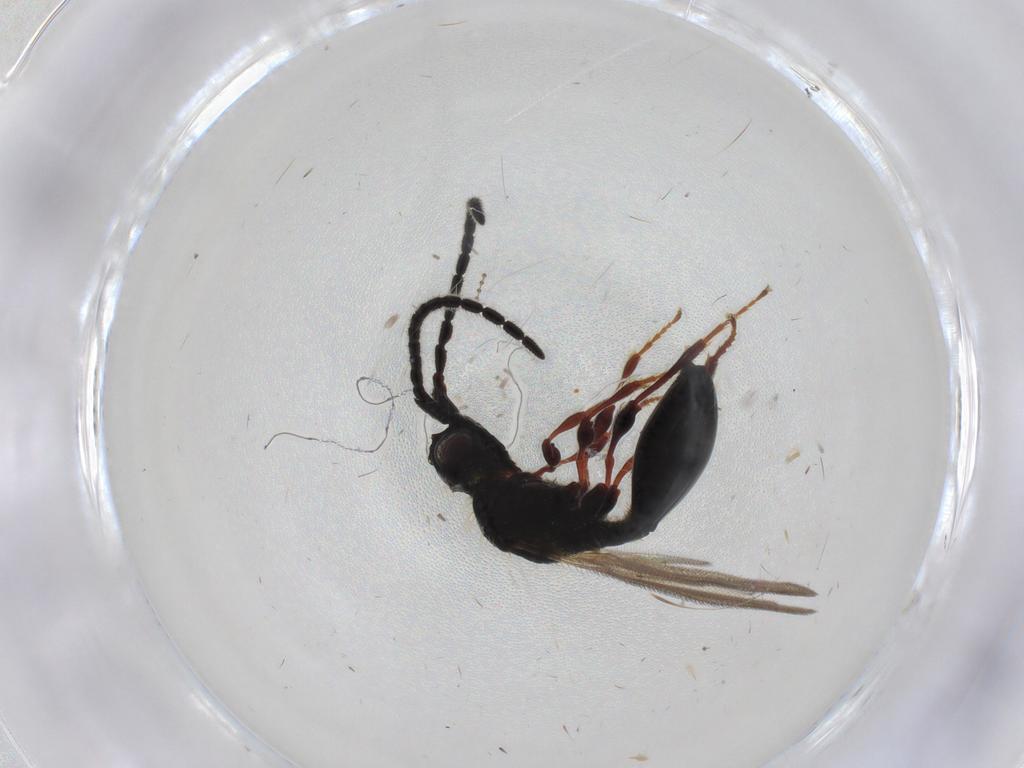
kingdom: Animalia
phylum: Arthropoda
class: Insecta
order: Hymenoptera
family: Diapriidae
